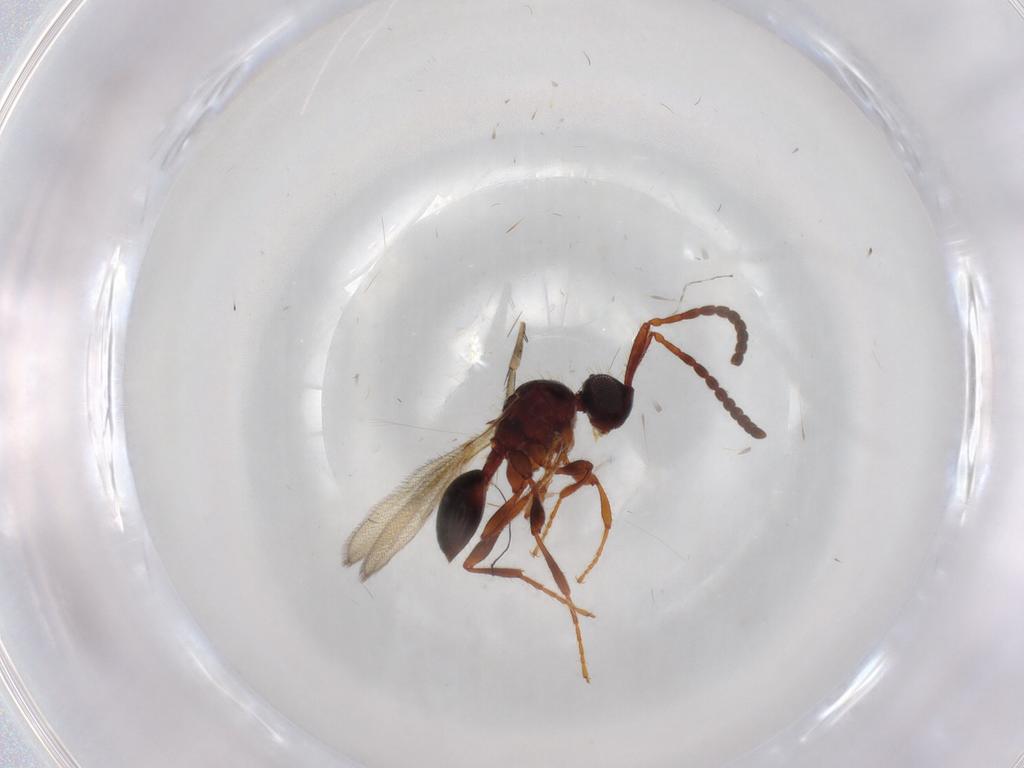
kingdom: Animalia
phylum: Arthropoda
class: Insecta
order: Hymenoptera
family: Diapriidae
